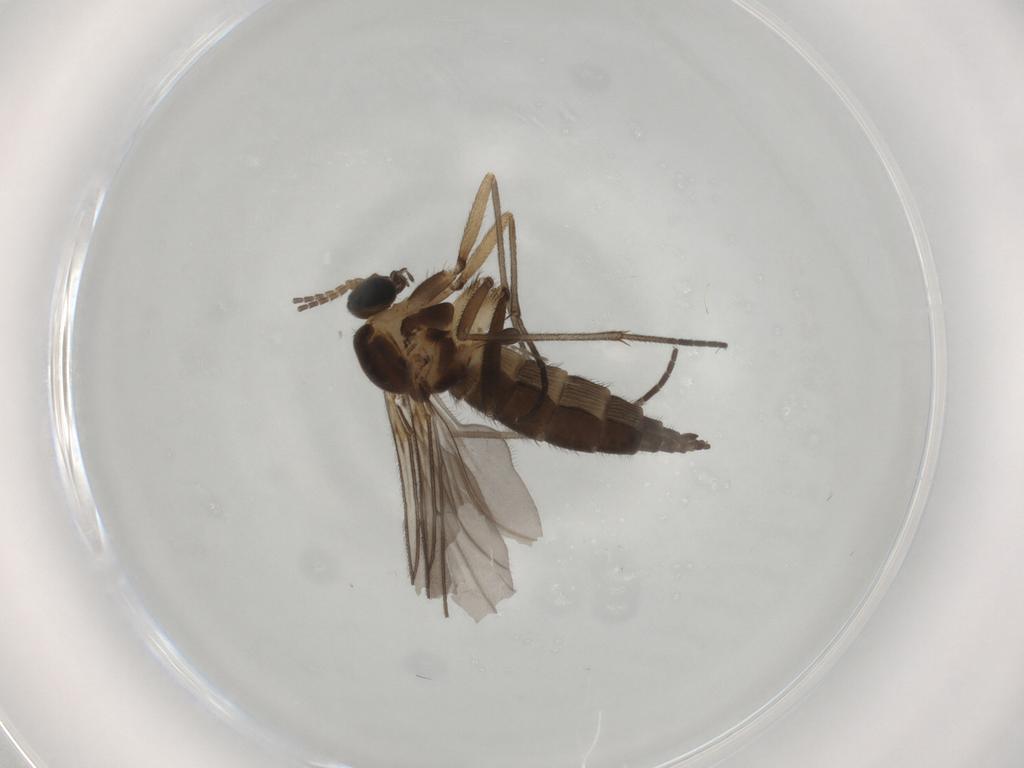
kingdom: Animalia
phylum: Arthropoda
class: Insecta
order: Diptera
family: Sciaridae
